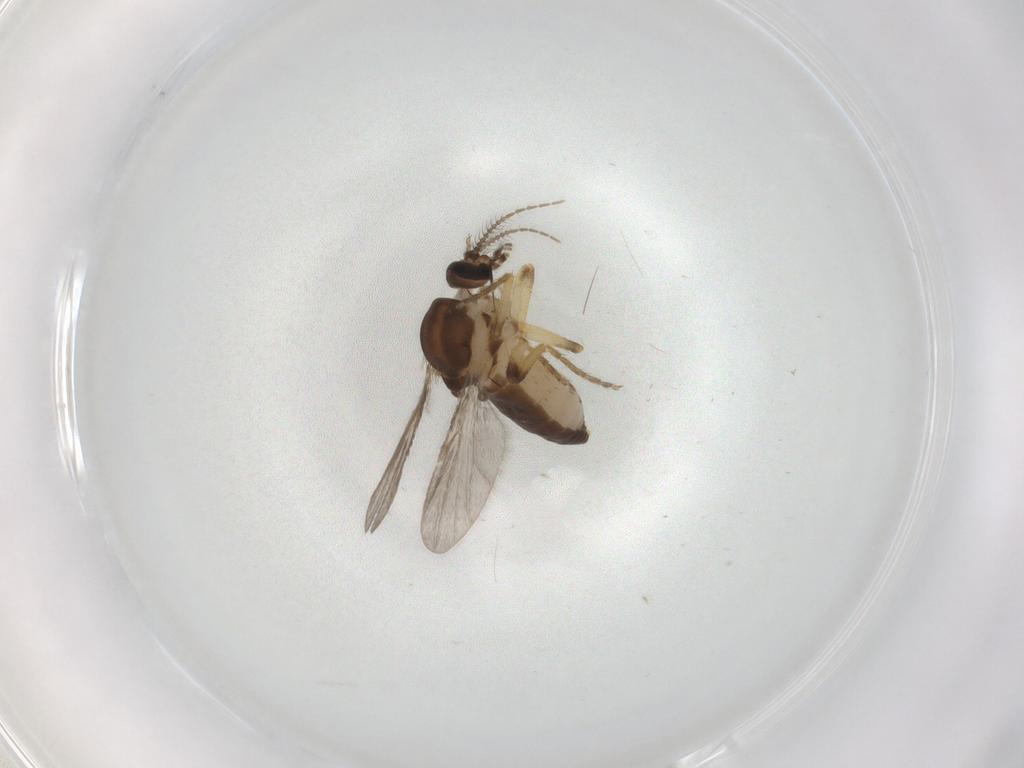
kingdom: Animalia
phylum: Arthropoda
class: Insecta
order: Diptera
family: Ceratopogonidae
